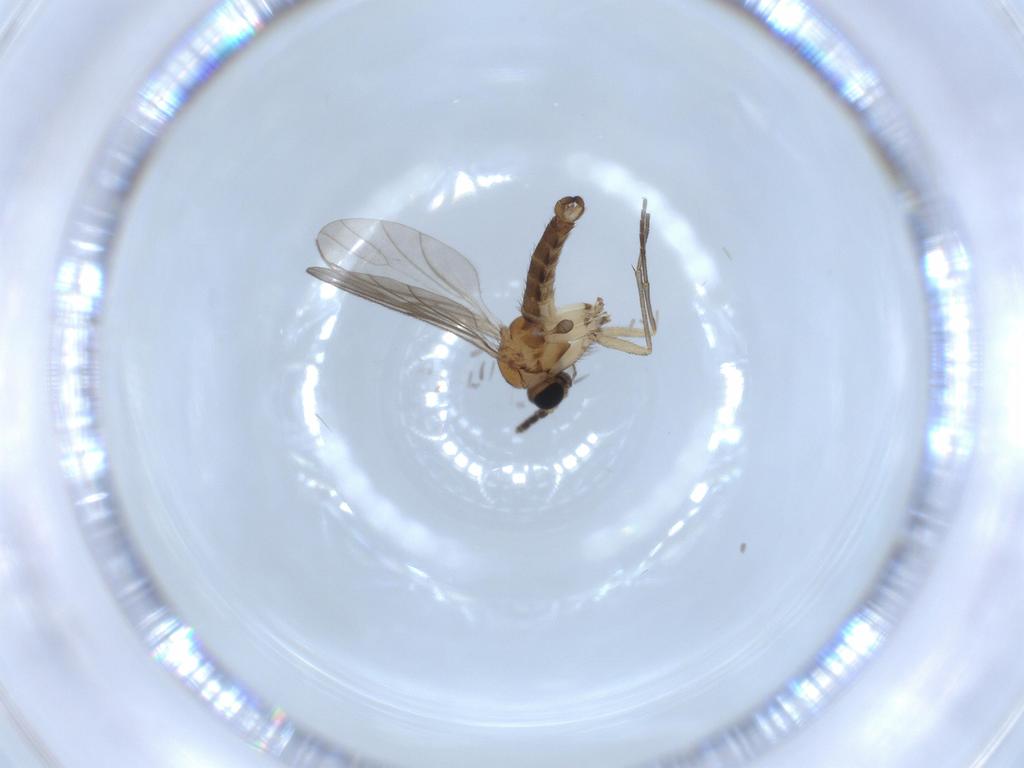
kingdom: Animalia
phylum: Arthropoda
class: Insecta
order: Diptera
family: Sciaridae
